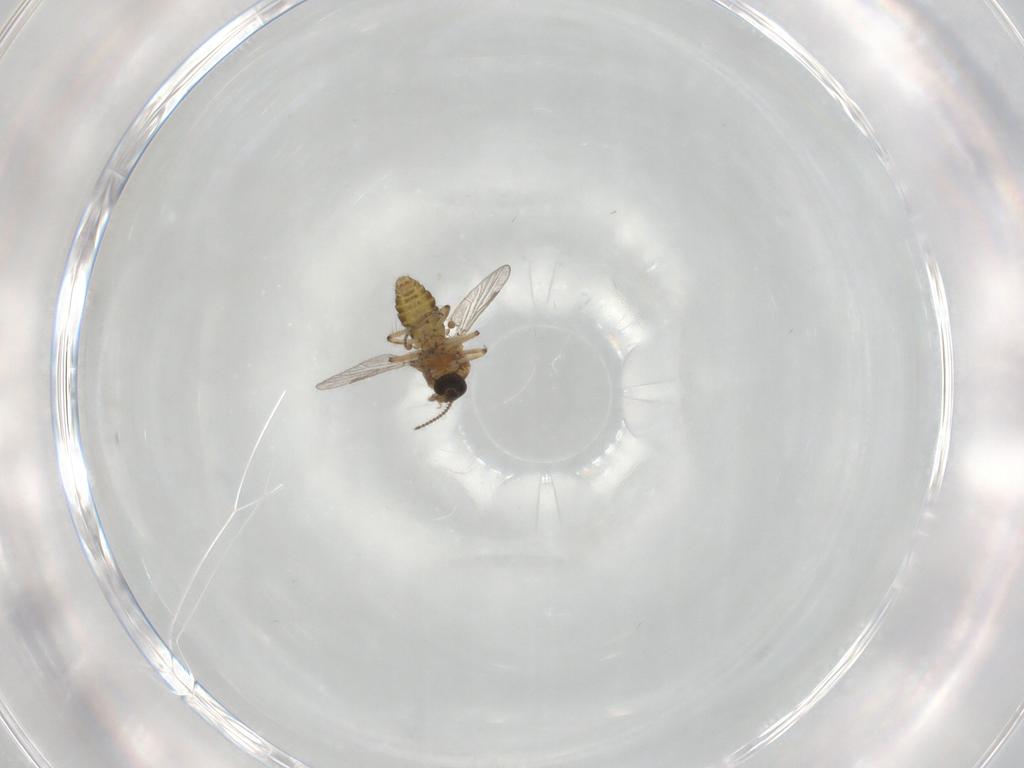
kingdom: Animalia
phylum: Arthropoda
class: Insecta
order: Diptera
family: Ceratopogonidae
